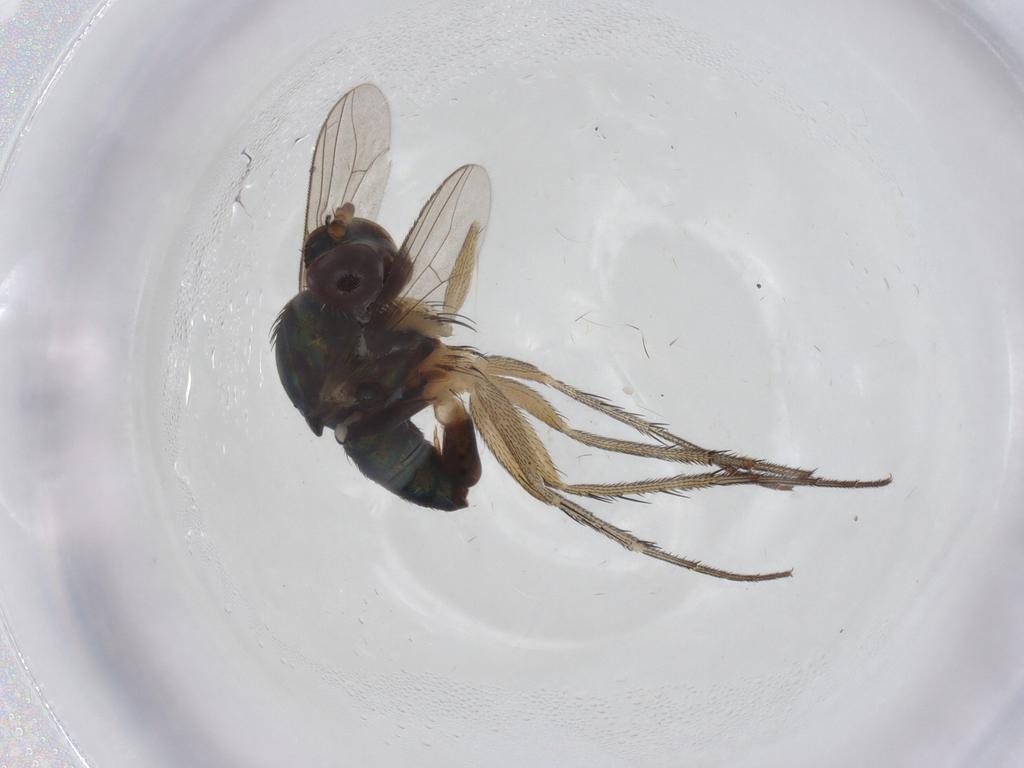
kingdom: Animalia
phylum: Arthropoda
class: Insecta
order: Diptera
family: Dolichopodidae
